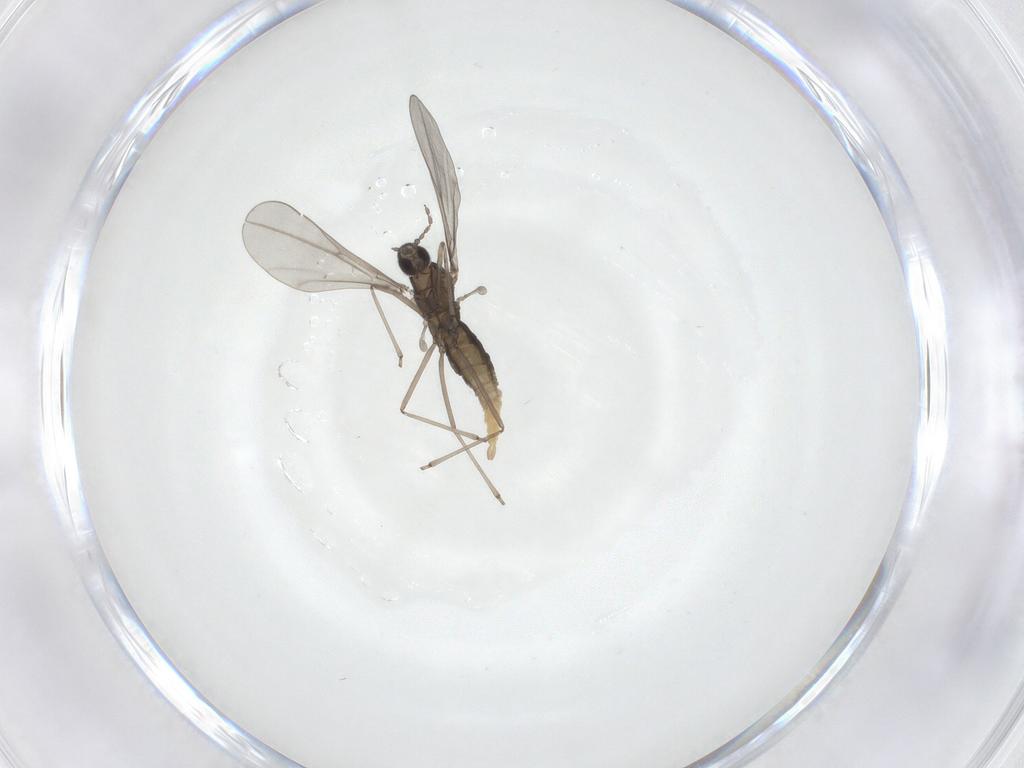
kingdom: Animalia
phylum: Arthropoda
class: Insecta
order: Diptera
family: Cecidomyiidae
